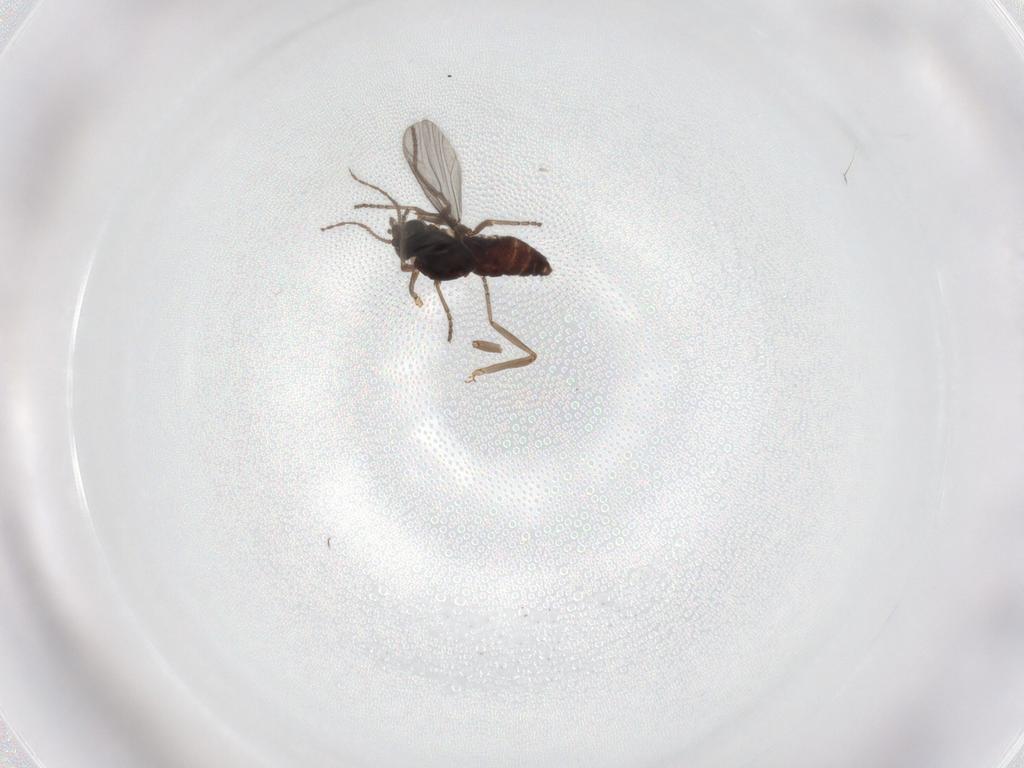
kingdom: Animalia
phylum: Arthropoda
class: Insecta
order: Diptera
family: Ceratopogonidae
